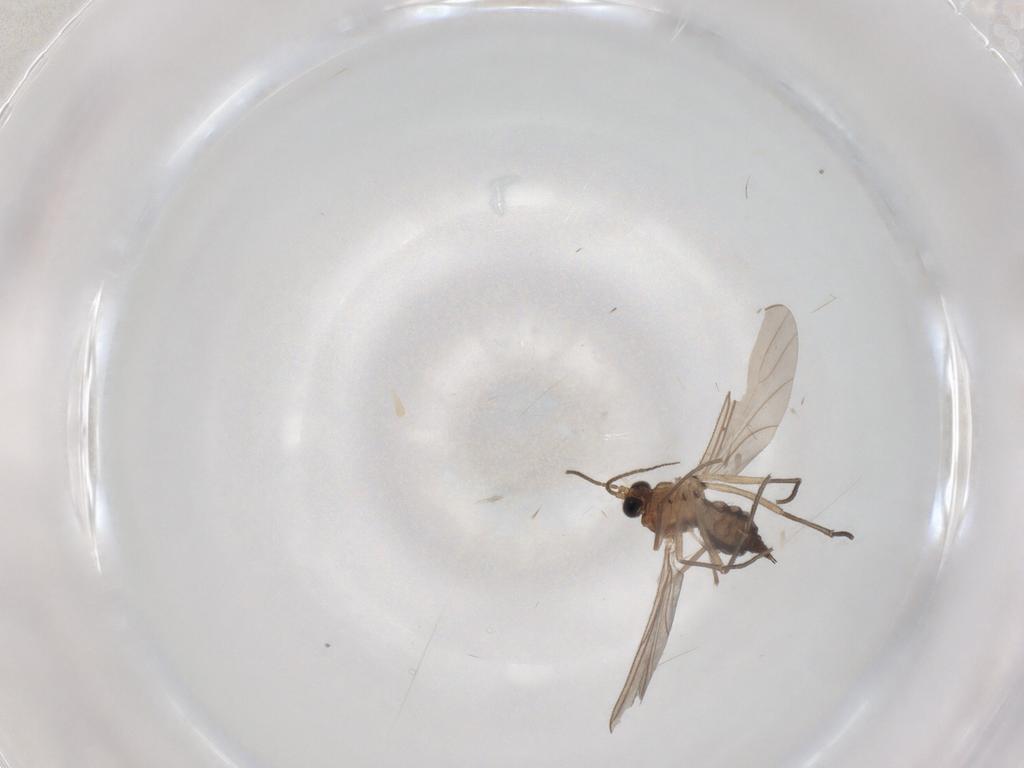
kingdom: Animalia
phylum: Arthropoda
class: Insecta
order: Diptera
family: Sciaridae
